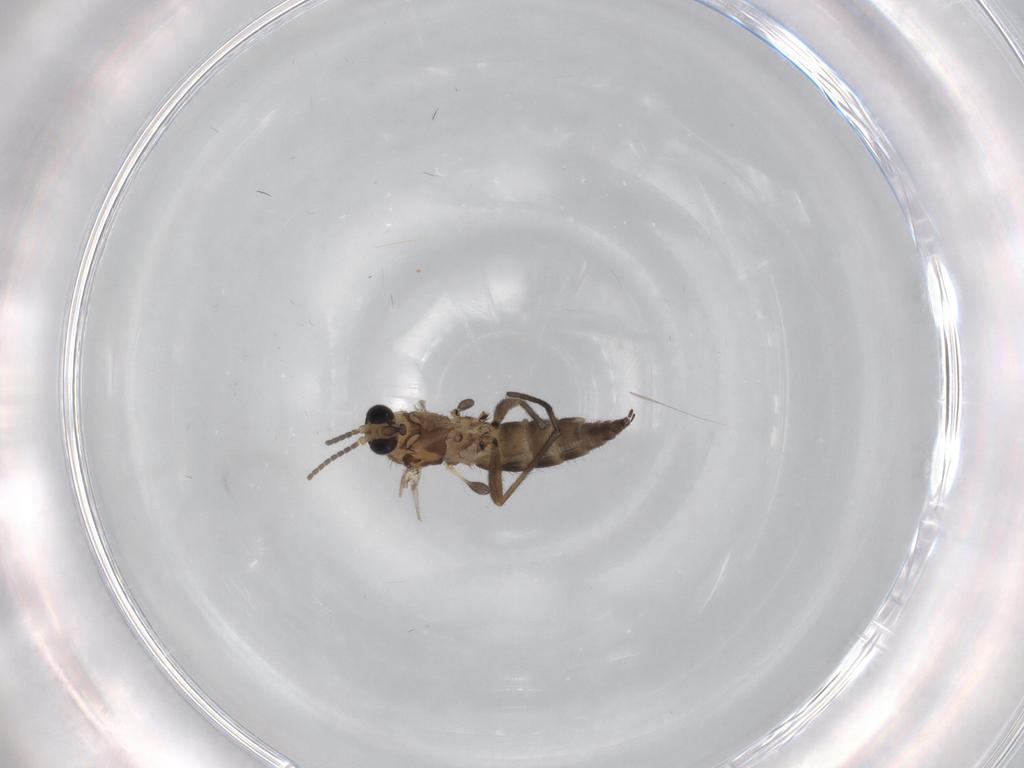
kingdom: Animalia
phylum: Arthropoda
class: Insecta
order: Diptera
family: Sciaridae
